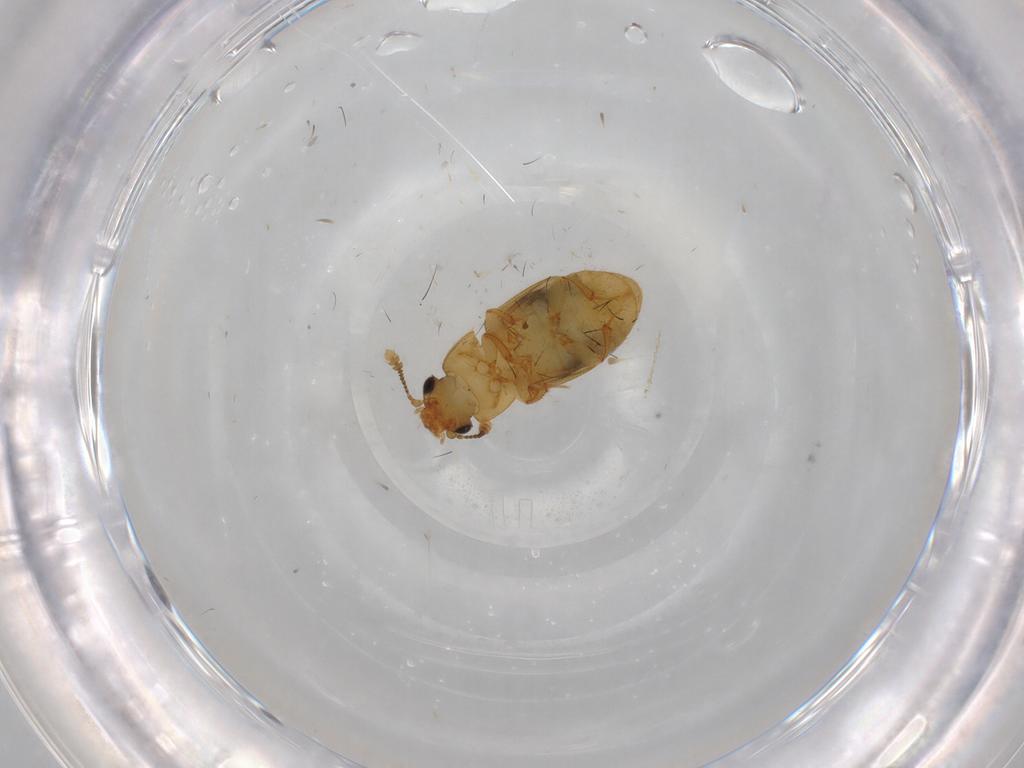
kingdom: Animalia
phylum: Arthropoda
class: Insecta
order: Coleoptera
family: Nitidulidae
